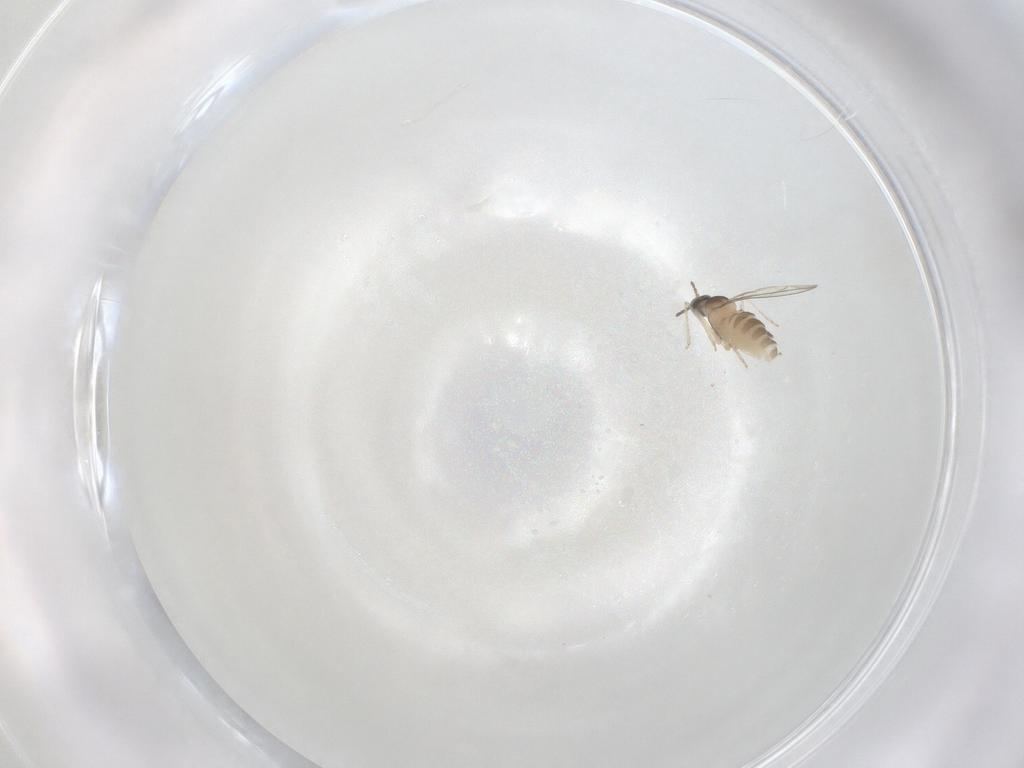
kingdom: Animalia
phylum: Arthropoda
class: Insecta
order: Diptera
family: Cecidomyiidae
